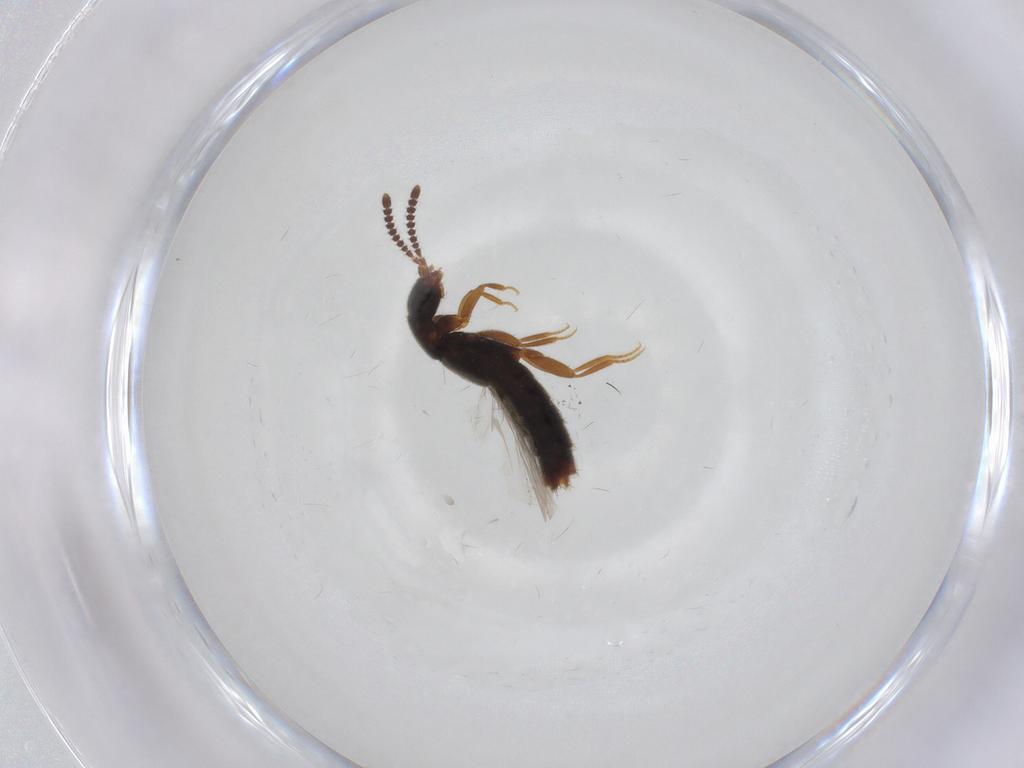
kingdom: Animalia
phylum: Arthropoda
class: Insecta
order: Coleoptera
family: Staphylinidae
